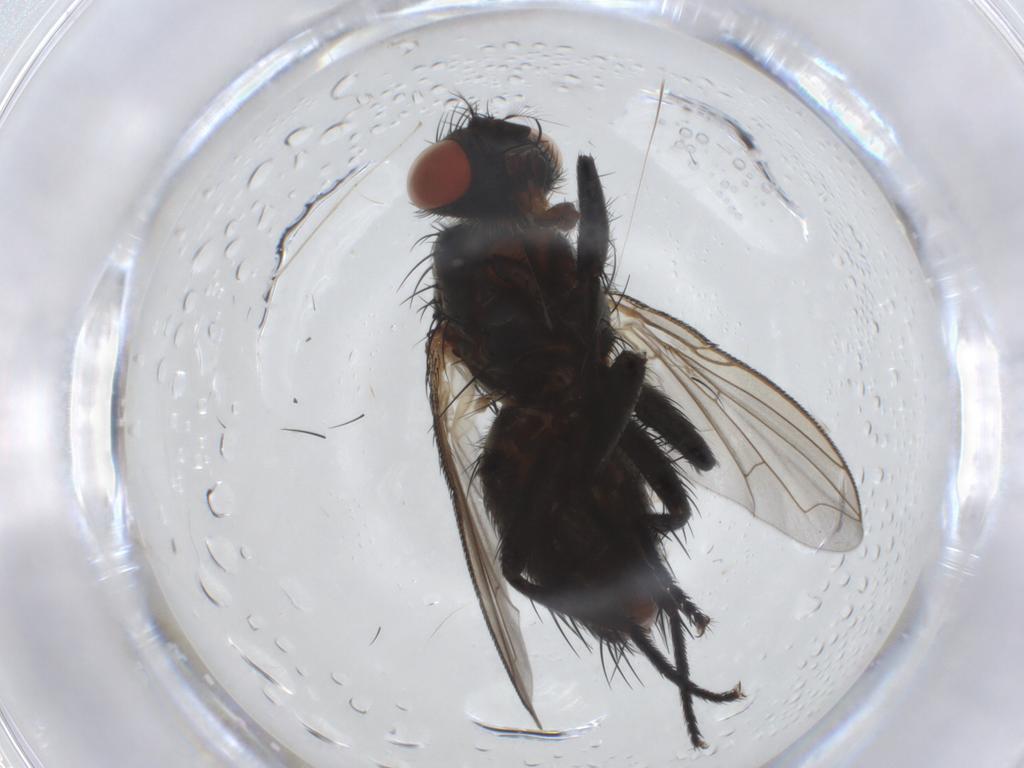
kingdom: Animalia
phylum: Arthropoda
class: Insecta
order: Diptera
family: Sarcophagidae
